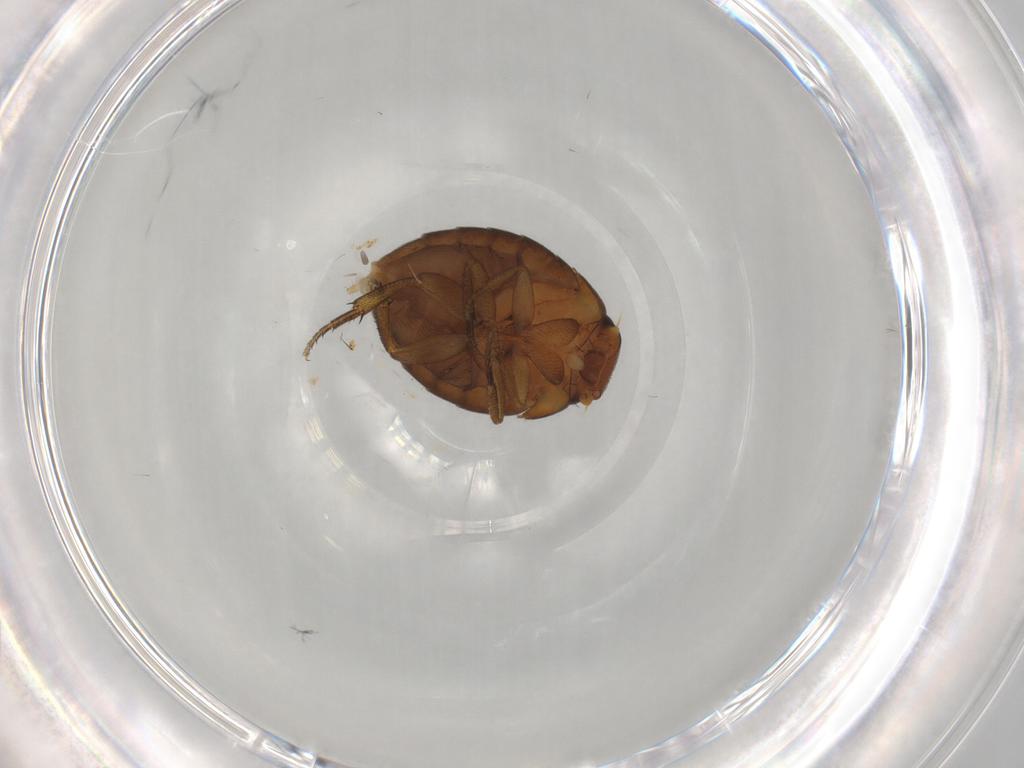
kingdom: Animalia
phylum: Arthropoda
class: Insecta
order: Diptera
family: Phoridae
